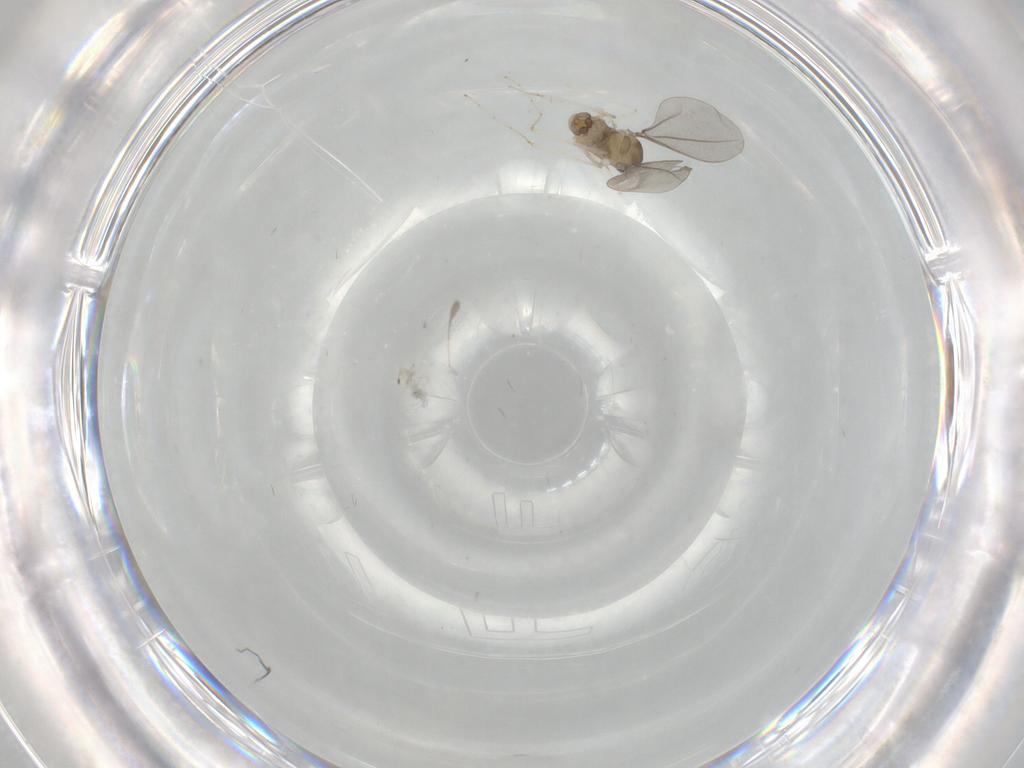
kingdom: Animalia
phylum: Arthropoda
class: Insecta
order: Diptera
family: Cecidomyiidae
